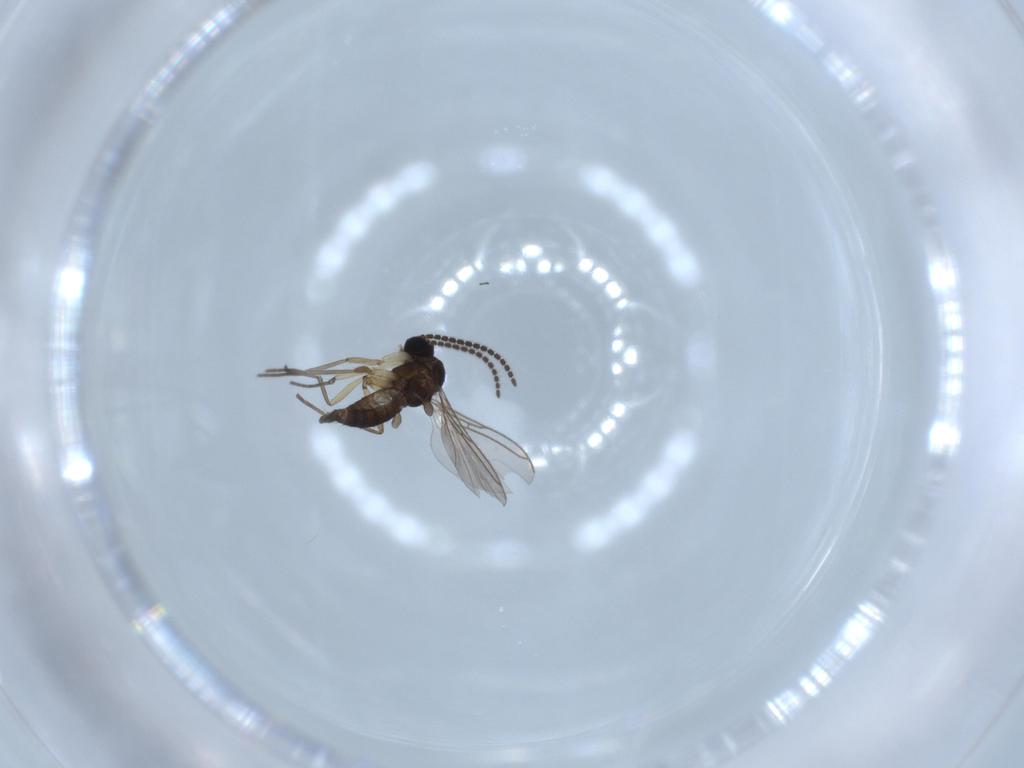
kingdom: Animalia
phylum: Arthropoda
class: Insecta
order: Diptera
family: Sciaridae
